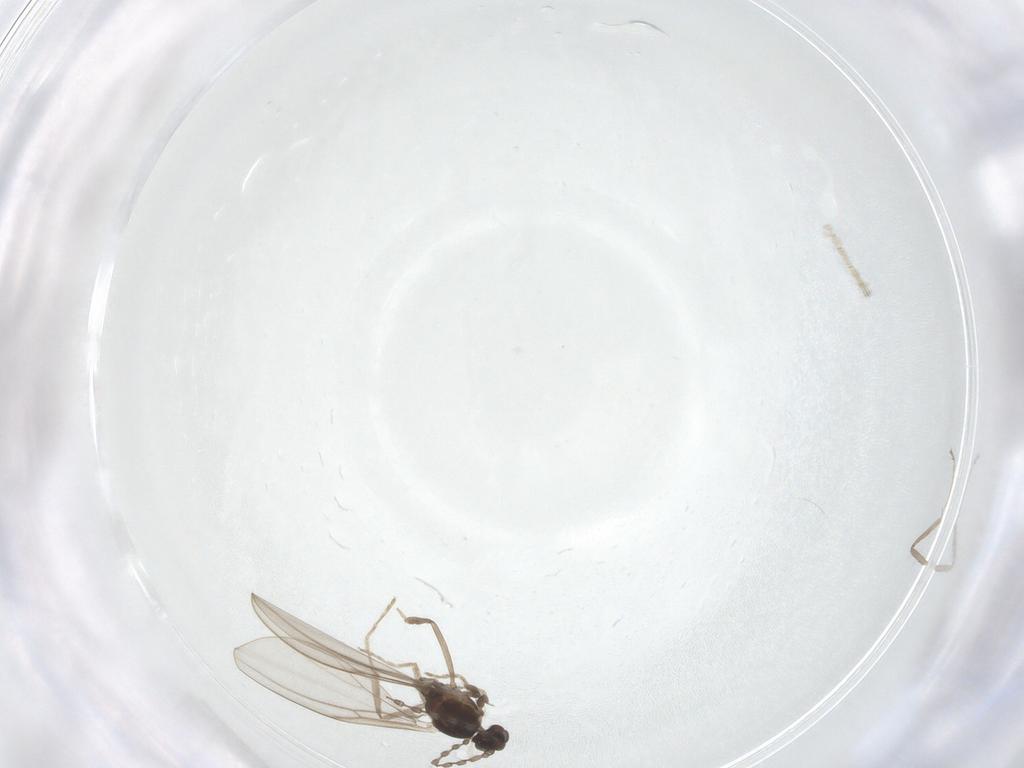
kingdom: Animalia
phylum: Arthropoda
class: Insecta
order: Diptera
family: Cecidomyiidae
